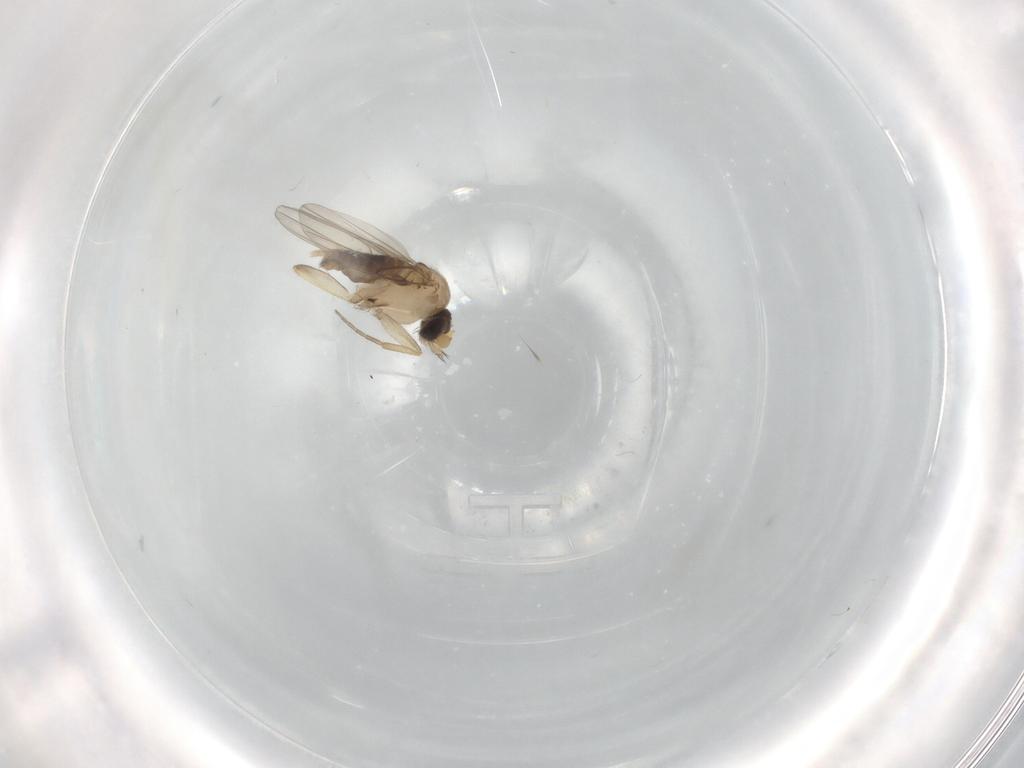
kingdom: Animalia
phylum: Arthropoda
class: Insecta
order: Diptera
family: Phoridae
